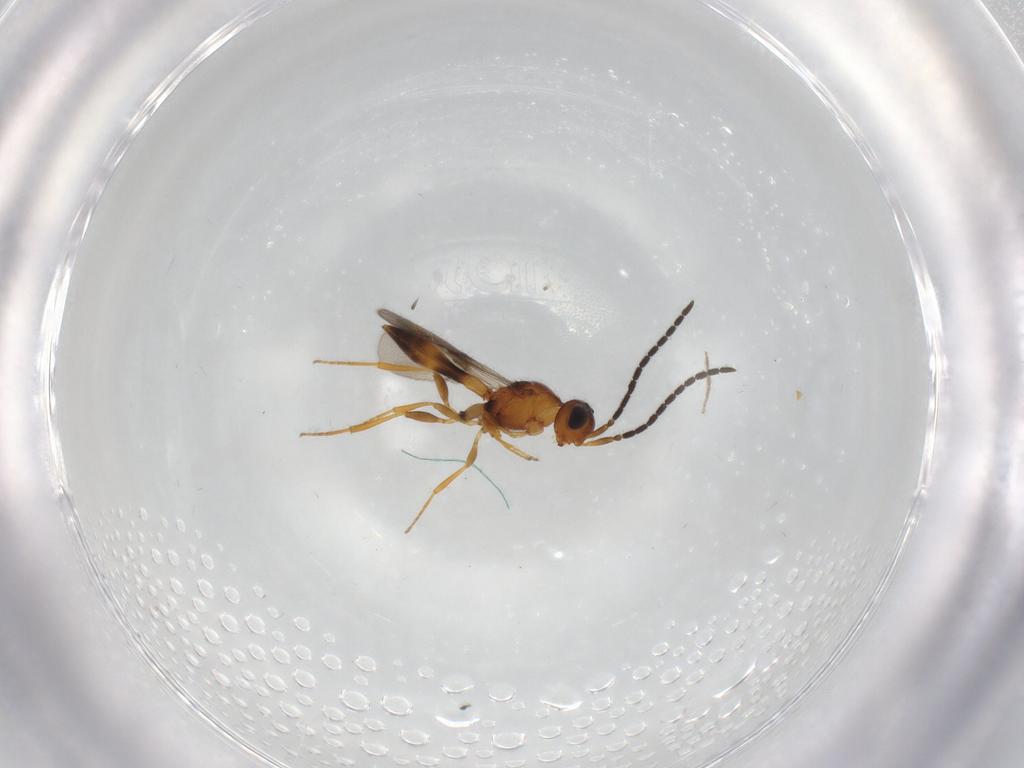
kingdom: Animalia
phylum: Arthropoda
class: Insecta
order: Hymenoptera
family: Scelionidae
